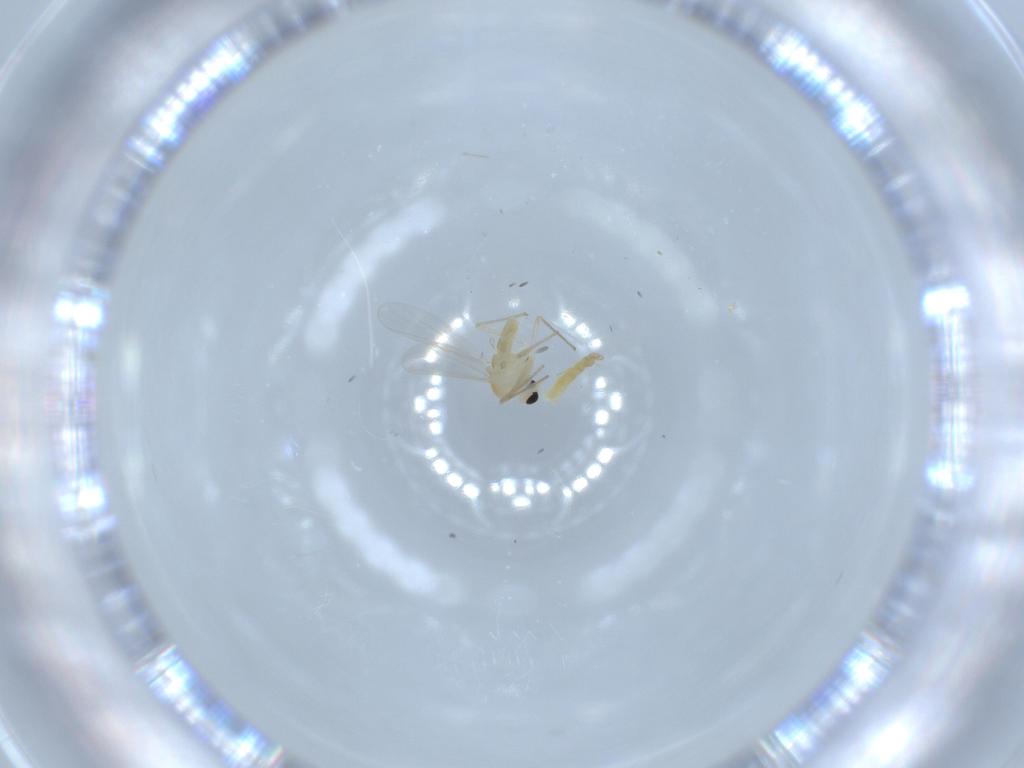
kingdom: Animalia
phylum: Arthropoda
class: Insecta
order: Diptera
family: Chironomidae
